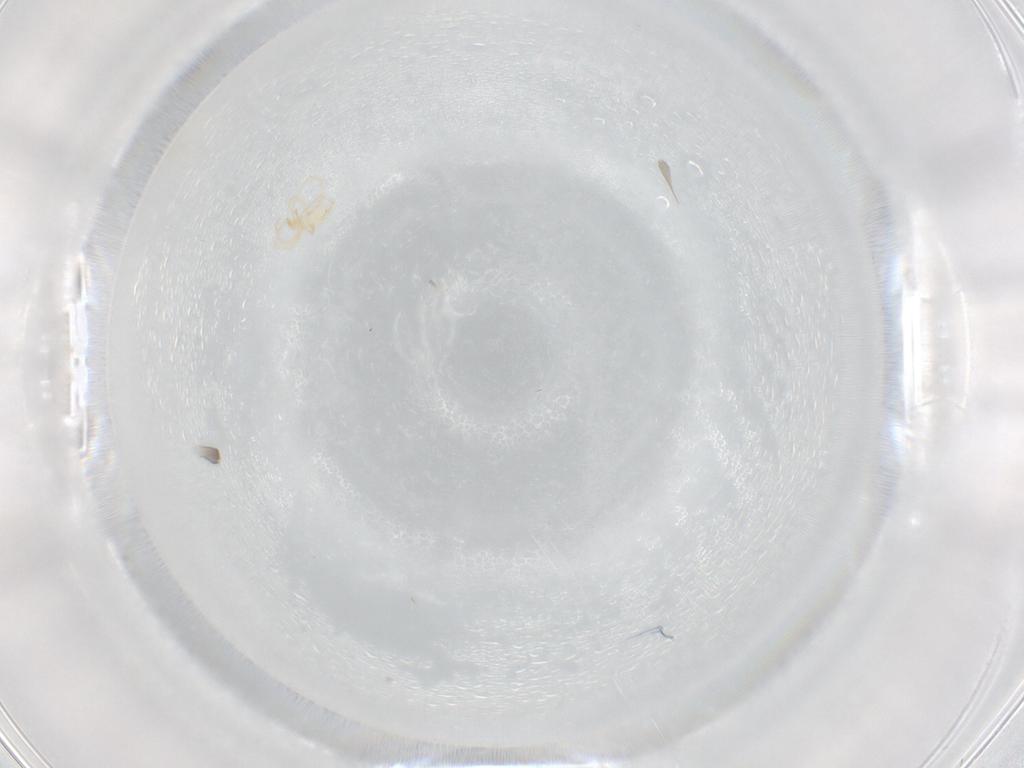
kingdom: Animalia
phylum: Arthropoda
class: Arachnida
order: Trombidiformes
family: Erythraeidae
